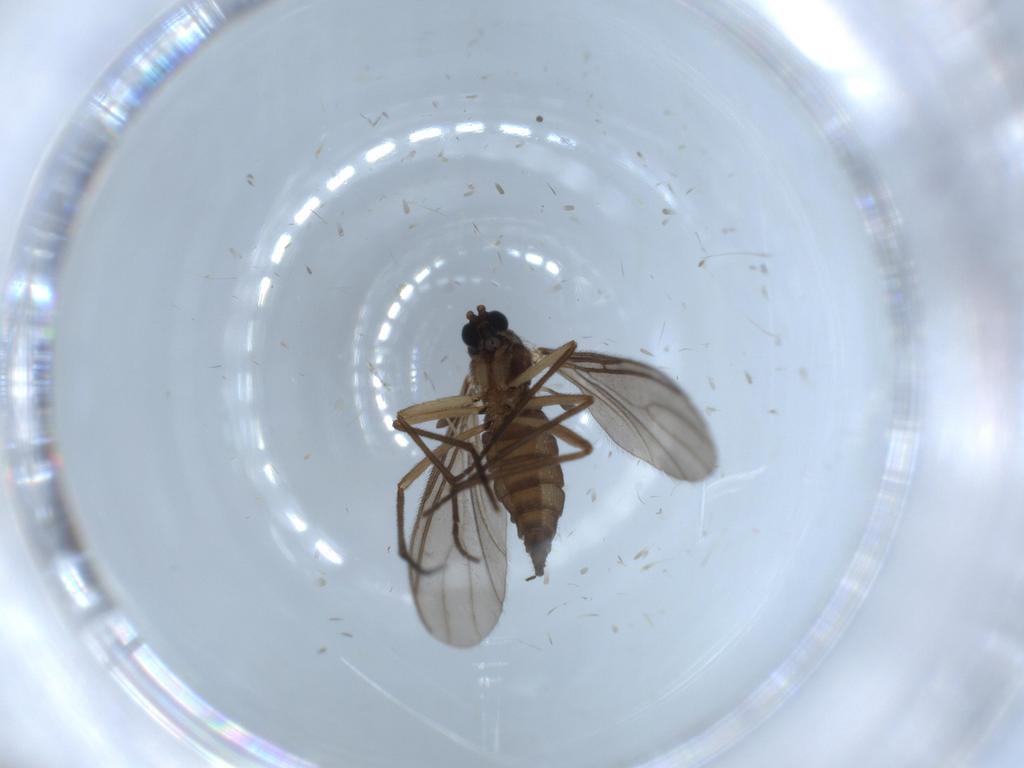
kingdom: Animalia
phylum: Arthropoda
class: Insecta
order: Diptera
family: Sciaridae
